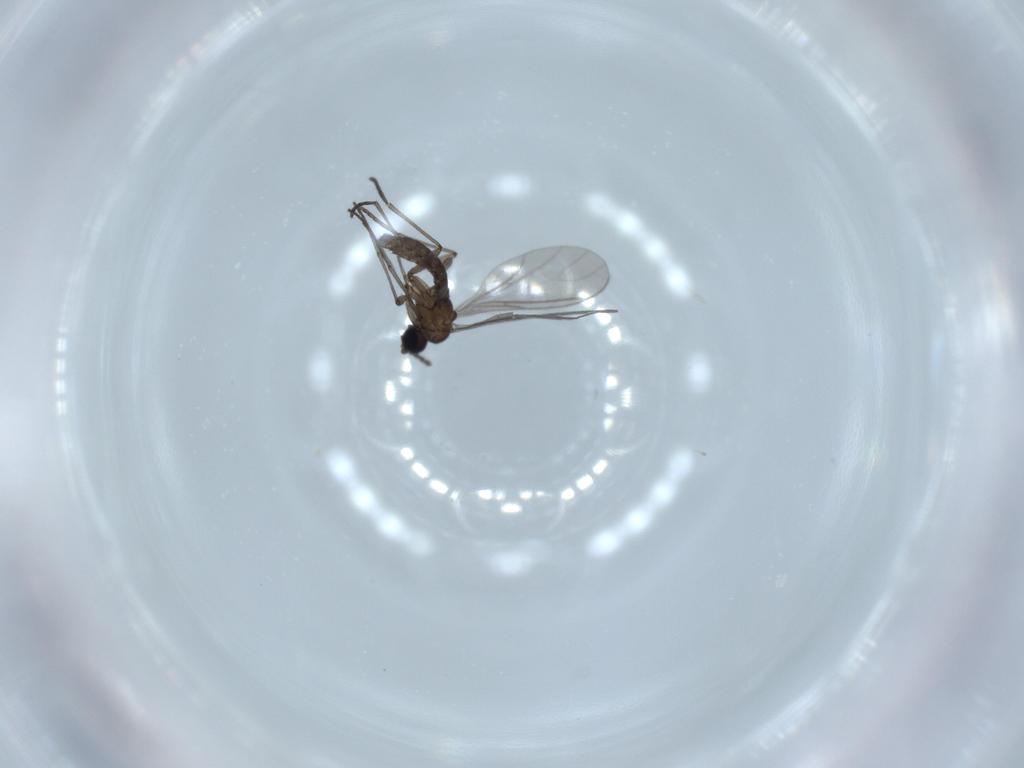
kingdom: Animalia
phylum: Arthropoda
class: Insecta
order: Diptera
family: Sciaridae
